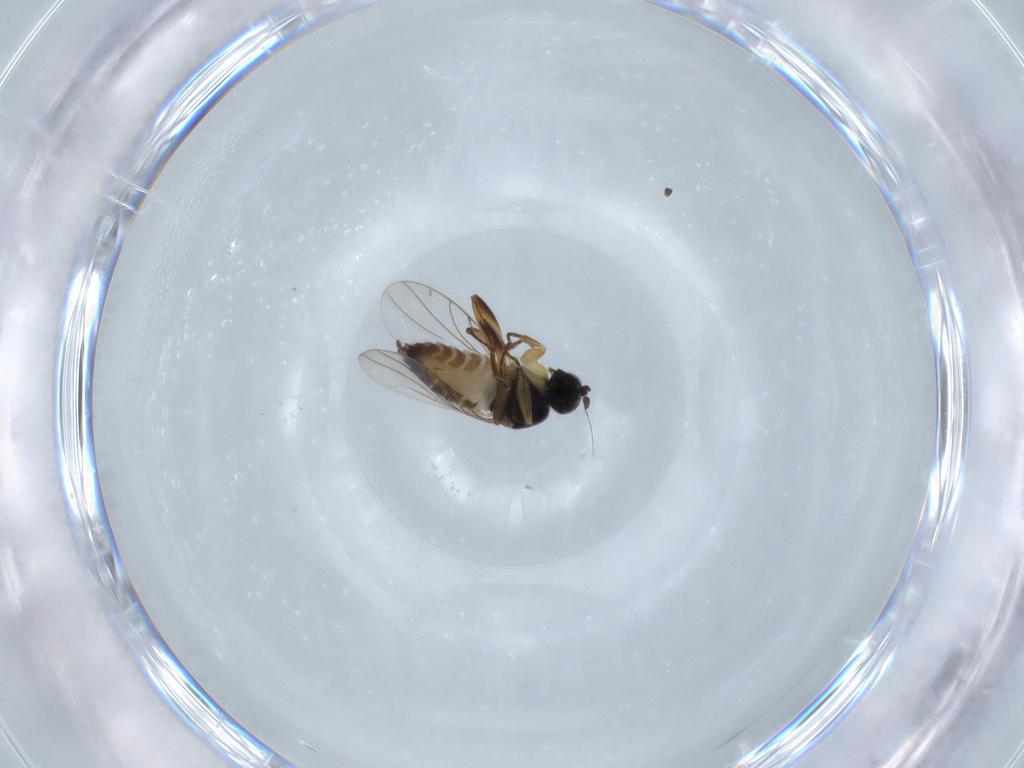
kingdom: Animalia
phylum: Arthropoda
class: Insecta
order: Diptera
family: Hybotidae
